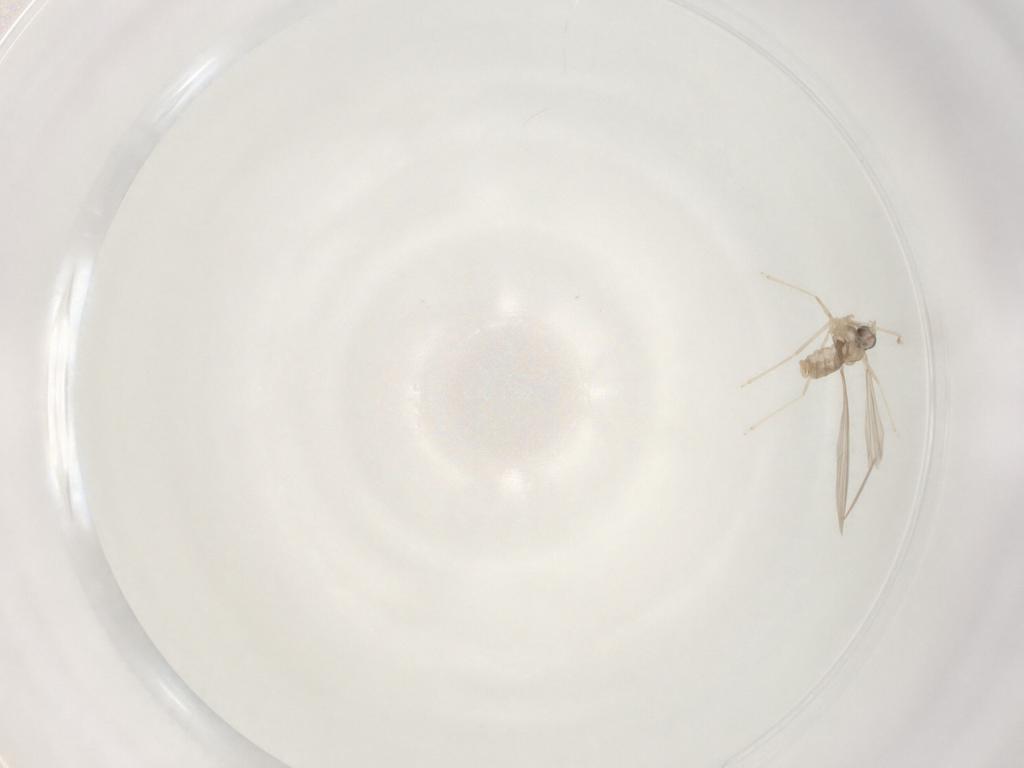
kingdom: Animalia
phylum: Arthropoda
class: Insecta
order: Diptera
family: Cecidomyiidae
